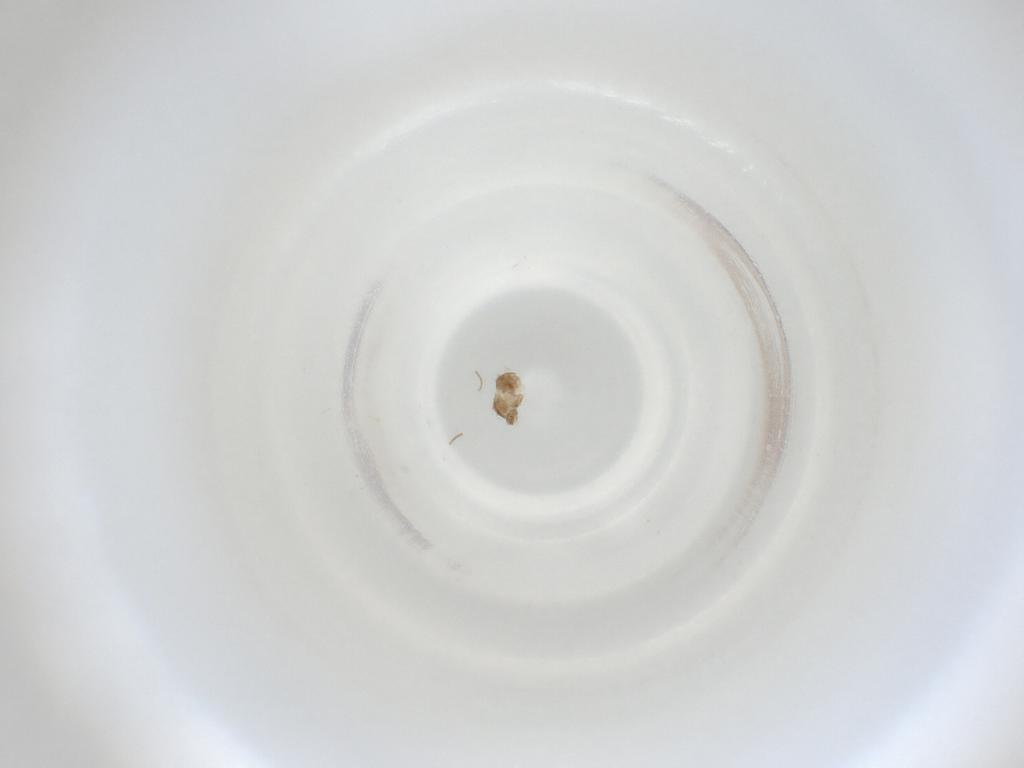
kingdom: Animalia
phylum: Arthropoda
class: Insecta
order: Diptera
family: Cecidomyiidae
